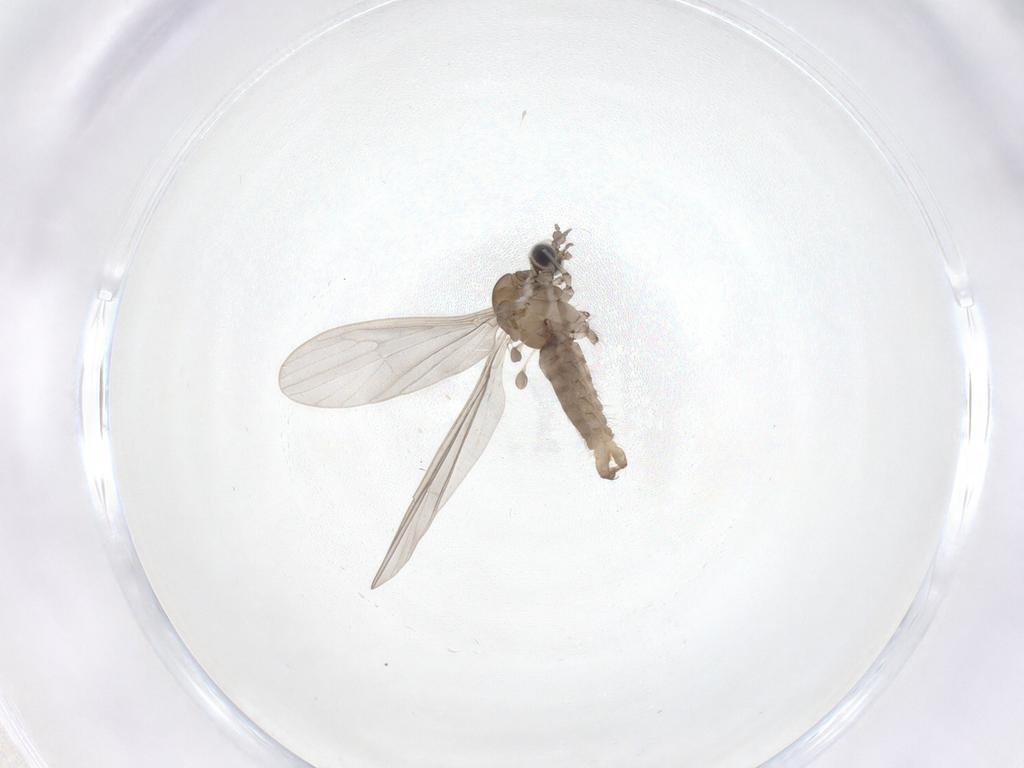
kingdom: Animalia
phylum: Arthropoda
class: Insecta
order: Diptera
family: Limoniidae
